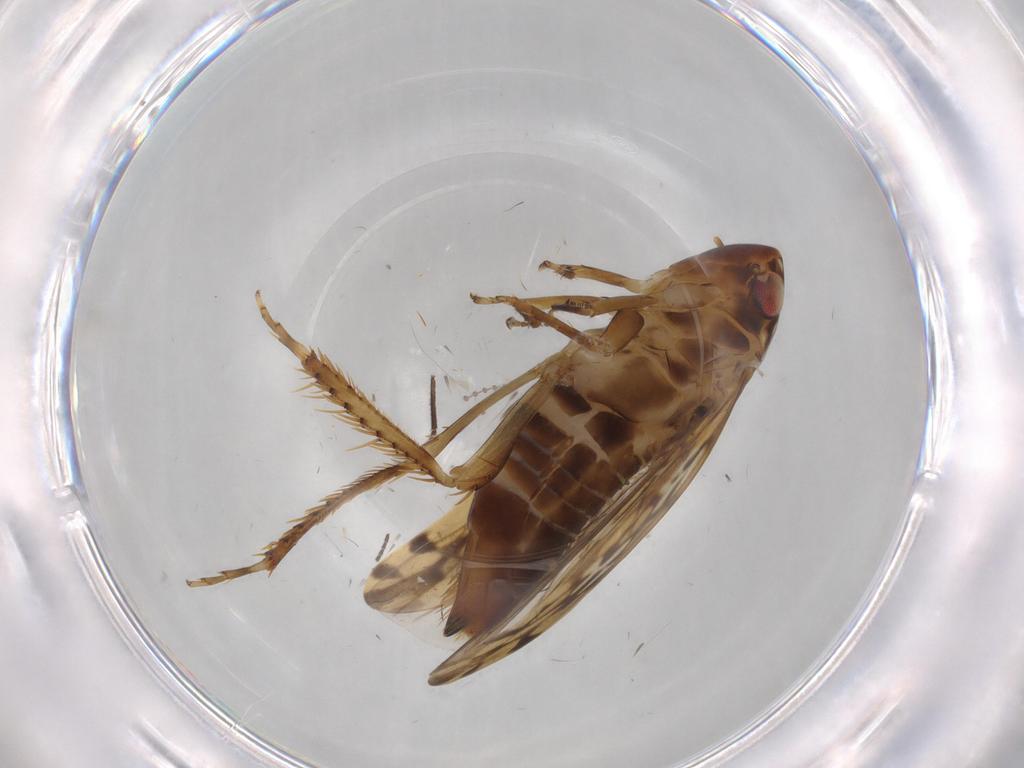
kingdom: Animalia
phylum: Arthropoda
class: Insecta
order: Hemiptera
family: Aleyrodidae
